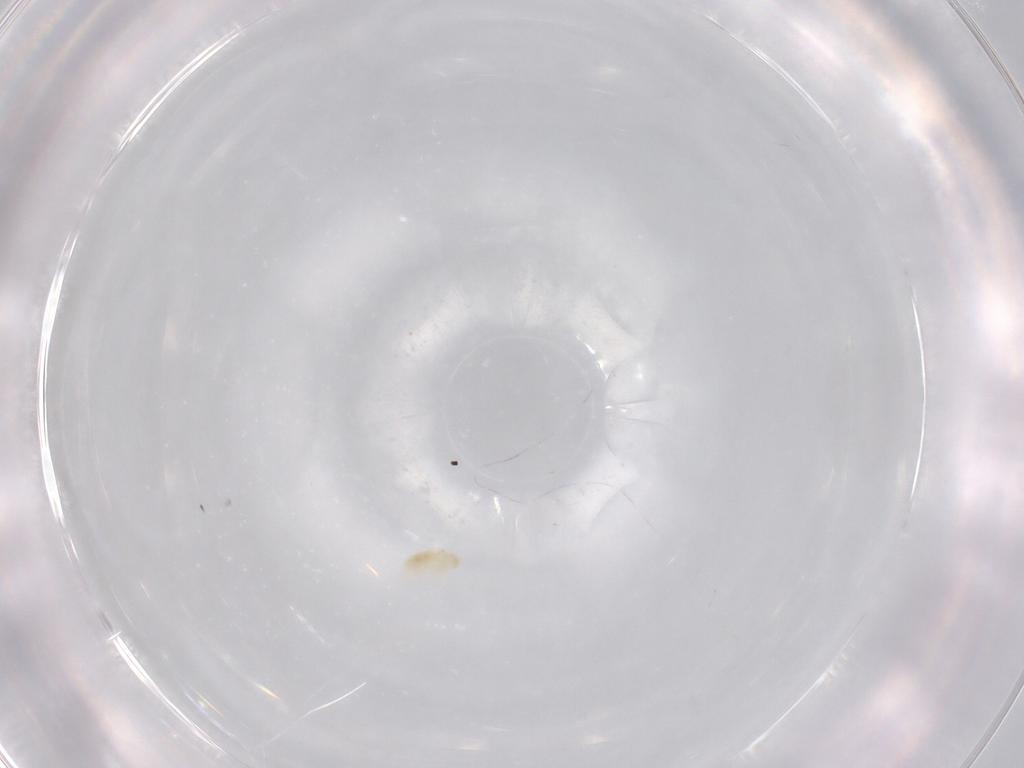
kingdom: Animalia
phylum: Arthropoda
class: Arachnida
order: Trombidiformes
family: Eupodidae
